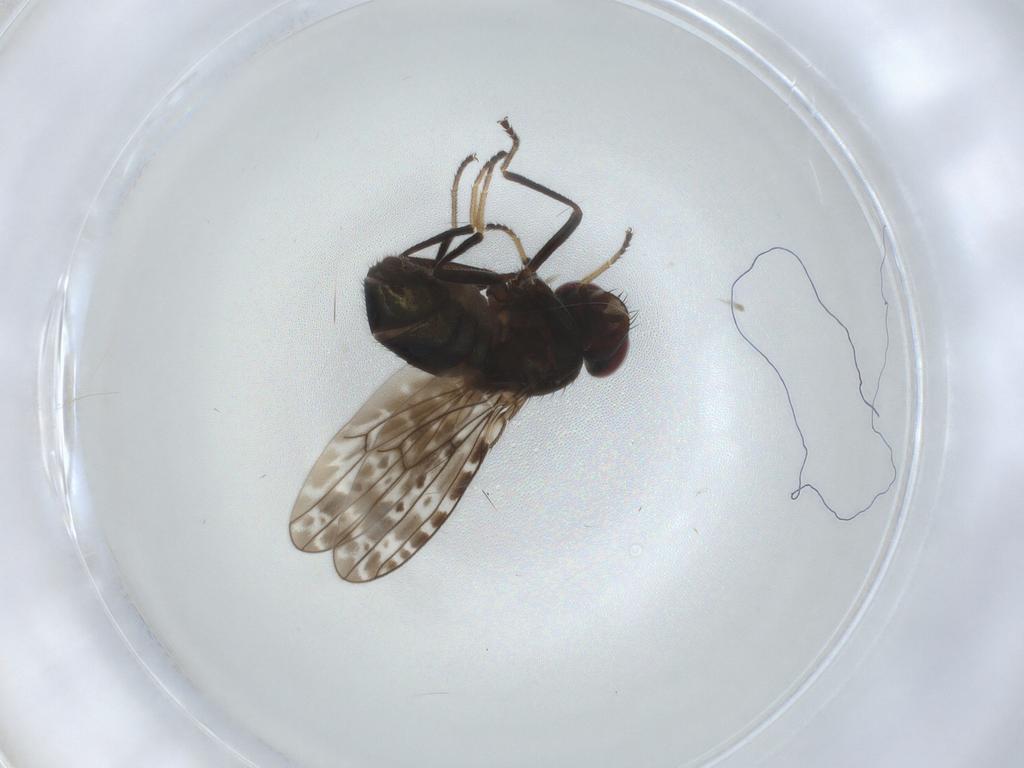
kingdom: Animalia
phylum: Arthropoda
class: Insecta
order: Diptera
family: Ephydridae
